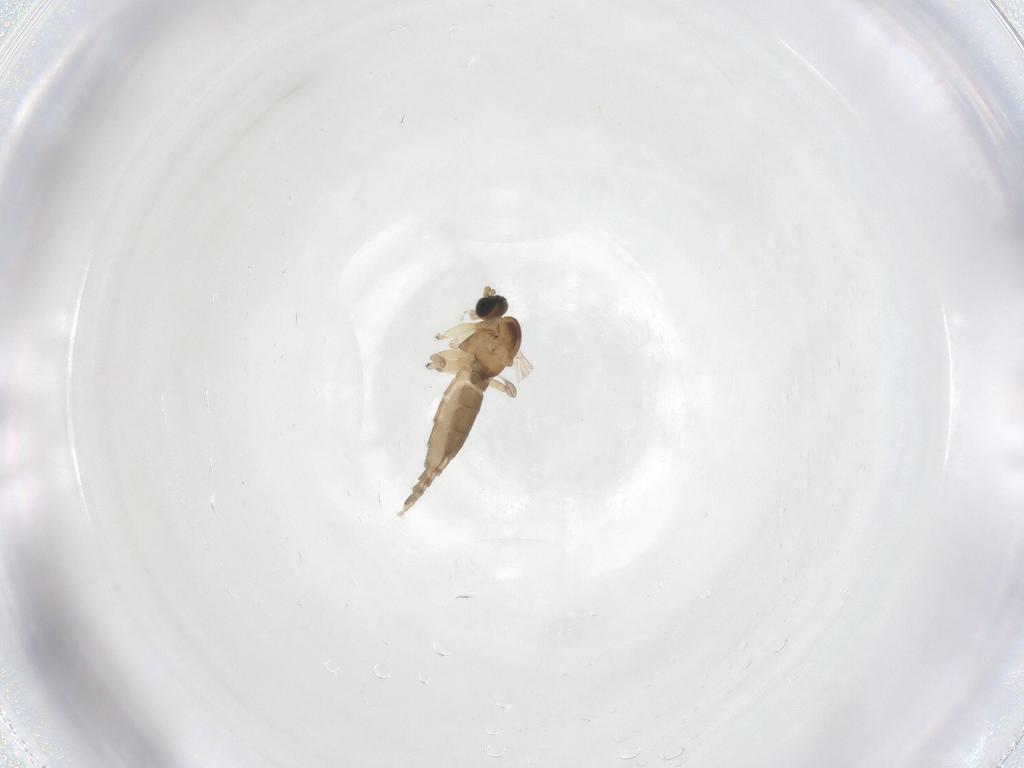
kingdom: Animalia
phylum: Arthropoda
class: Insecta
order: Diptera
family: Sciaridae
